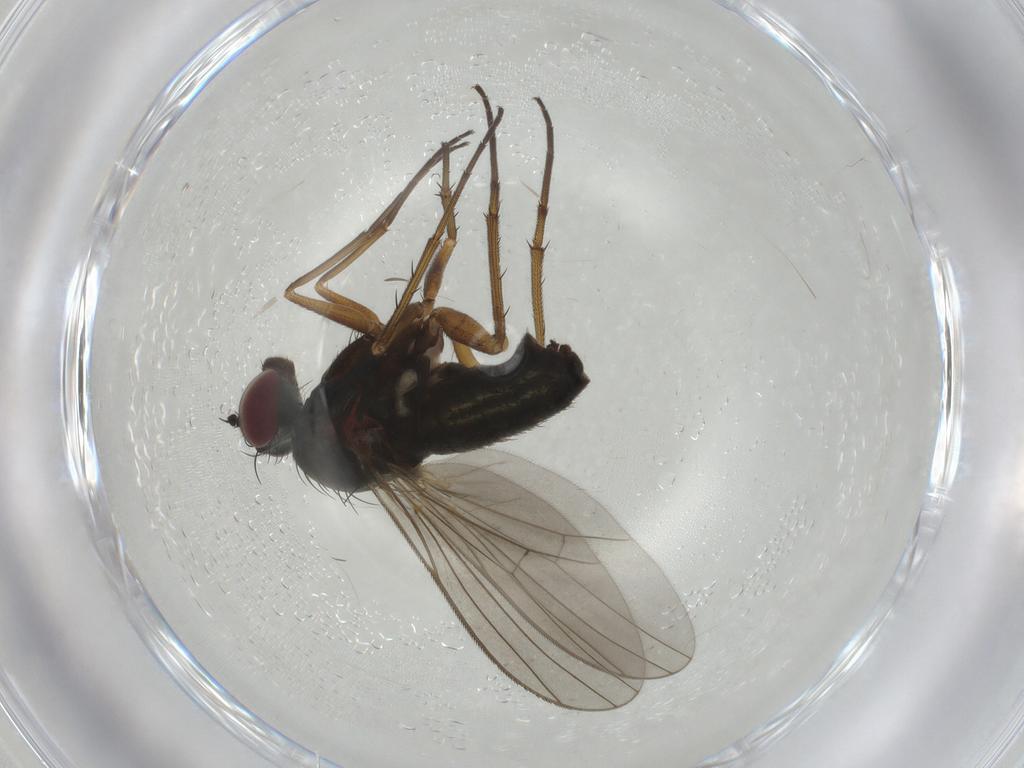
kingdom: Animalia
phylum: Arthropoda
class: Insecta
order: Diptera
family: Dolichopodidae
